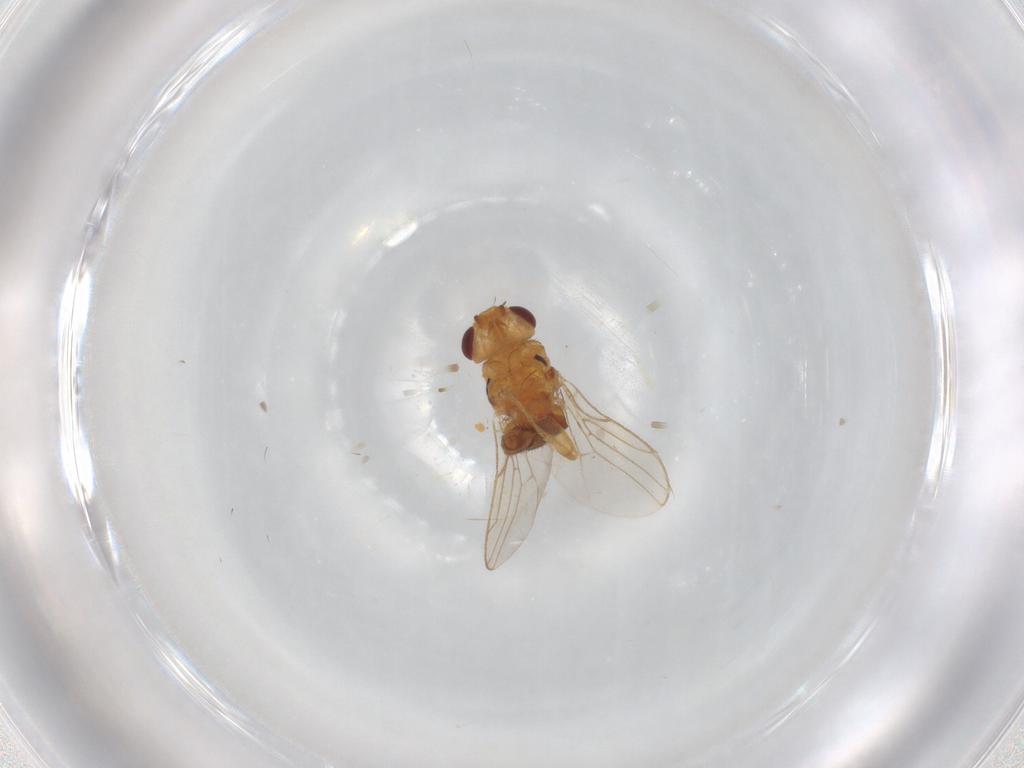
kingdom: Animalia
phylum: Arthropoda
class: Insecta
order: Diptera
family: Chloropidae
